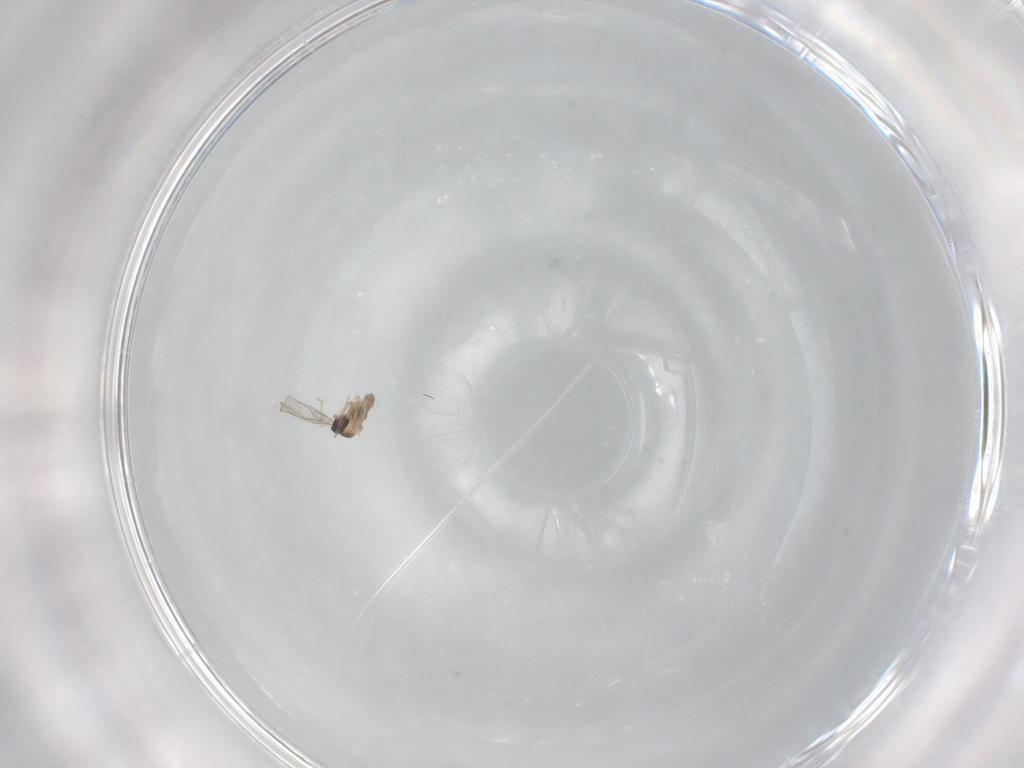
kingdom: Animalia
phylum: Arthropoda
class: Insecta
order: Diptera
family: Cecidomyiidae
